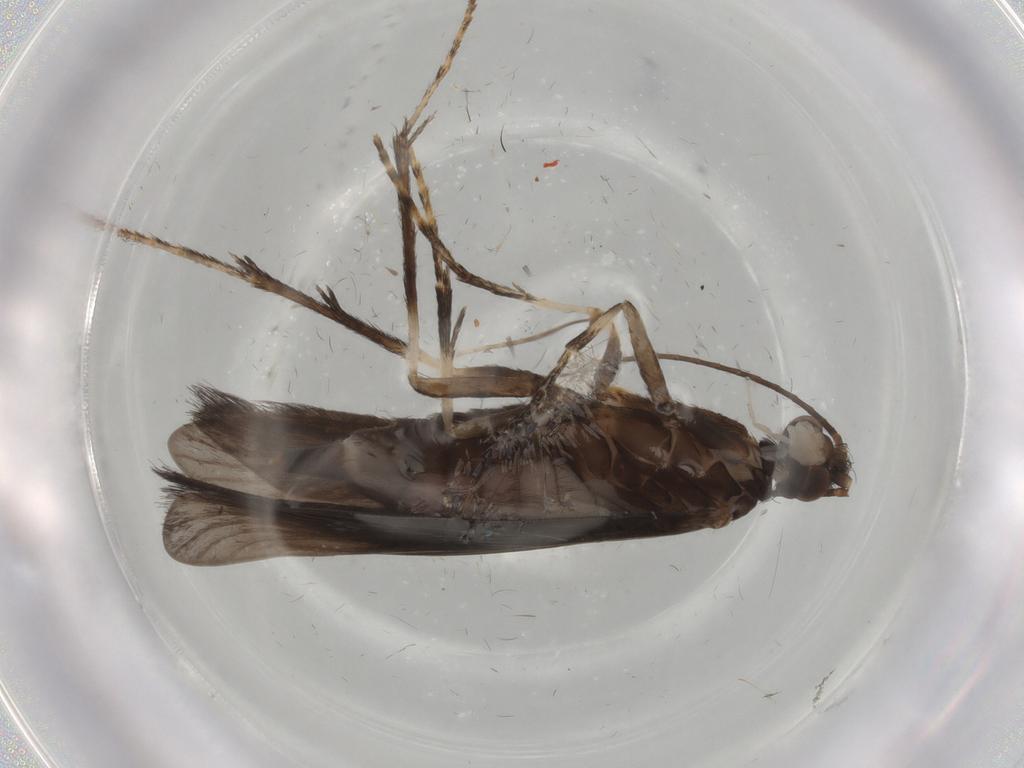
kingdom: Animalia
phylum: Arthropoda
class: Insecta
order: Trichoptera
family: Xiphocentronidae
